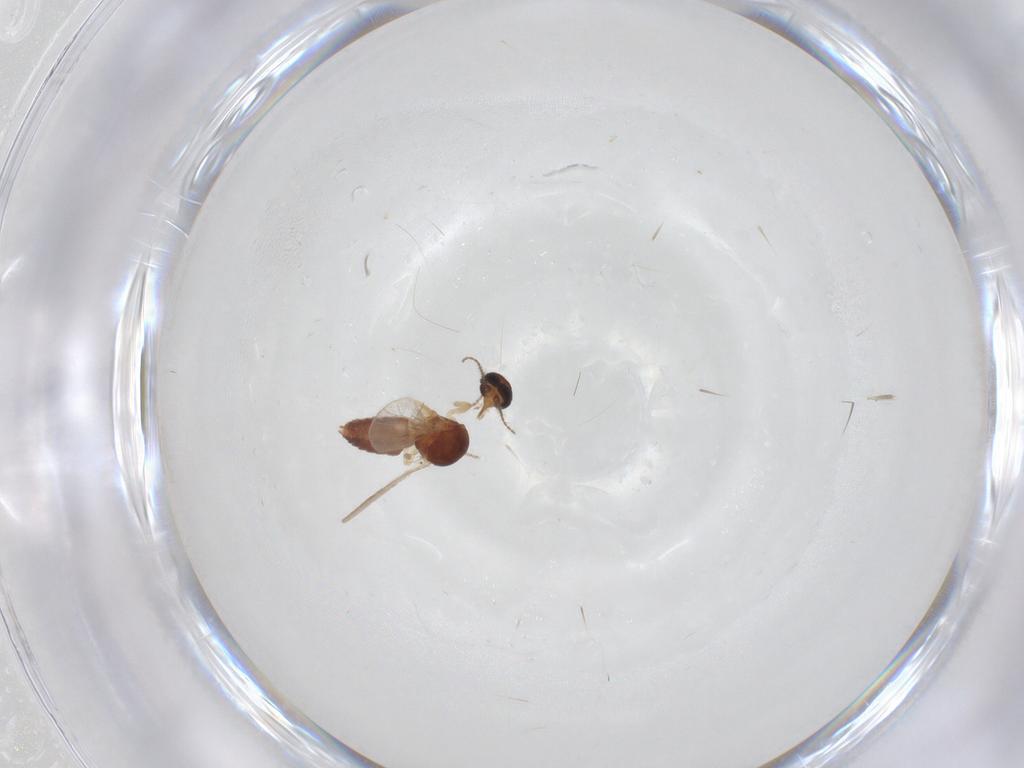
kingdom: Animalia
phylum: Arthropoda
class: Insecta
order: Diptera
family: Ceratopogonidae
